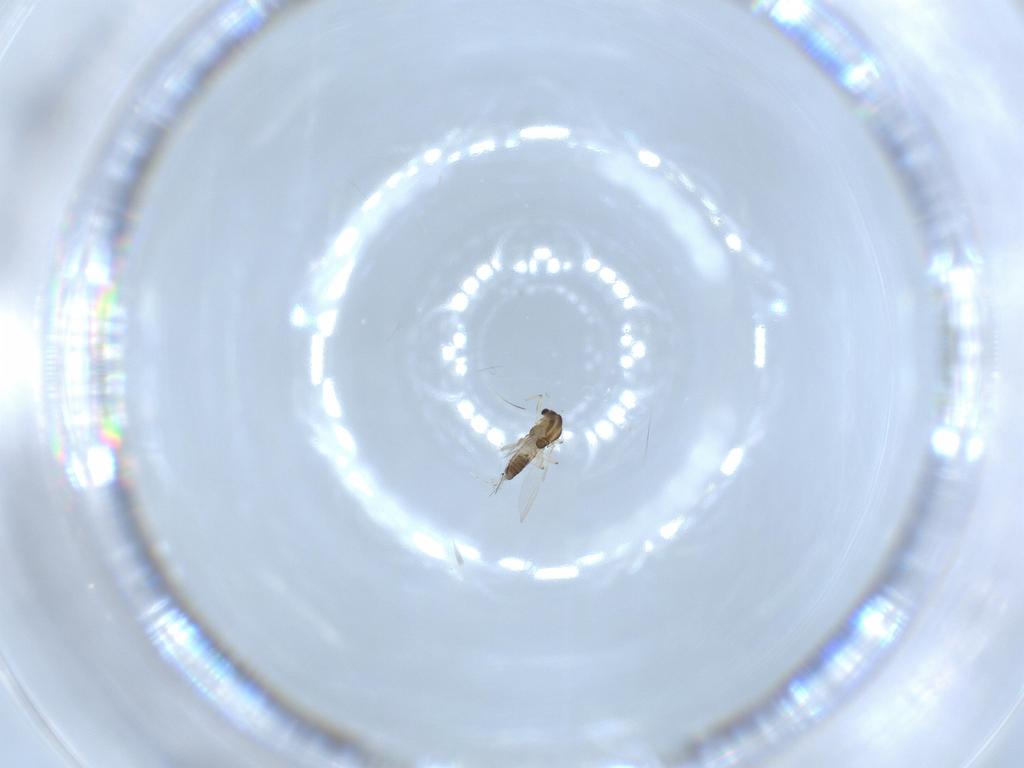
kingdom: Animalia
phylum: Arthropoda
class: Insecta
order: Diptera
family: Chironomidae
